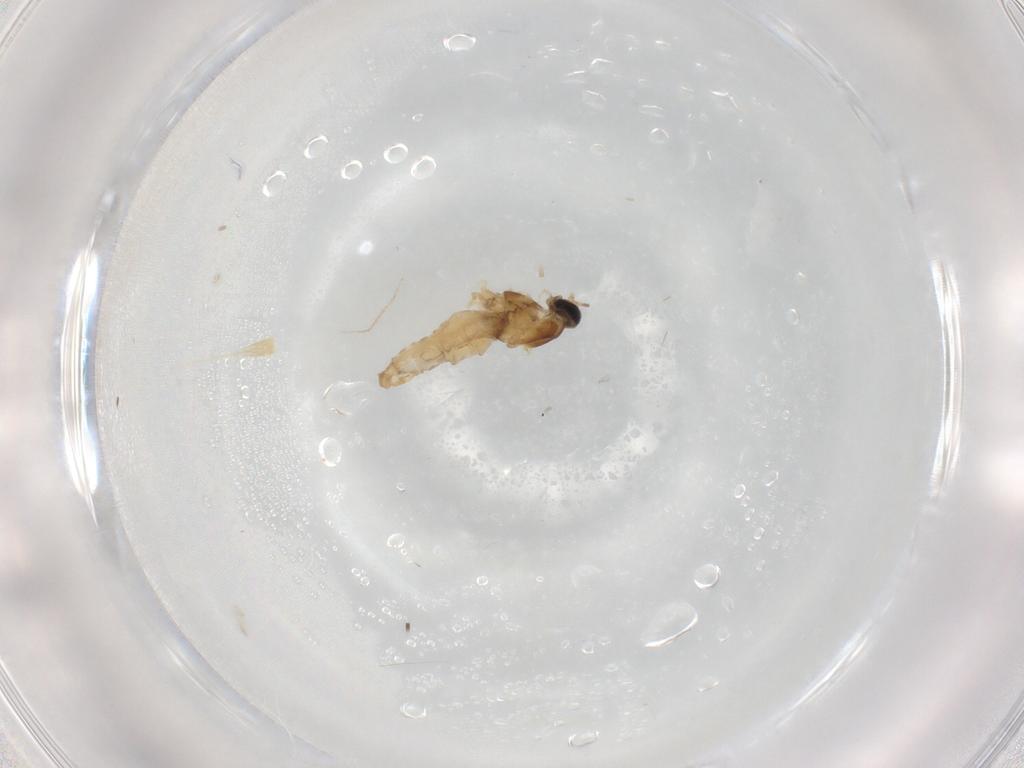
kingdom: Animalia
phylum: Arthropoda
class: Insecta
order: Diptera
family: Cecidomyiidae
